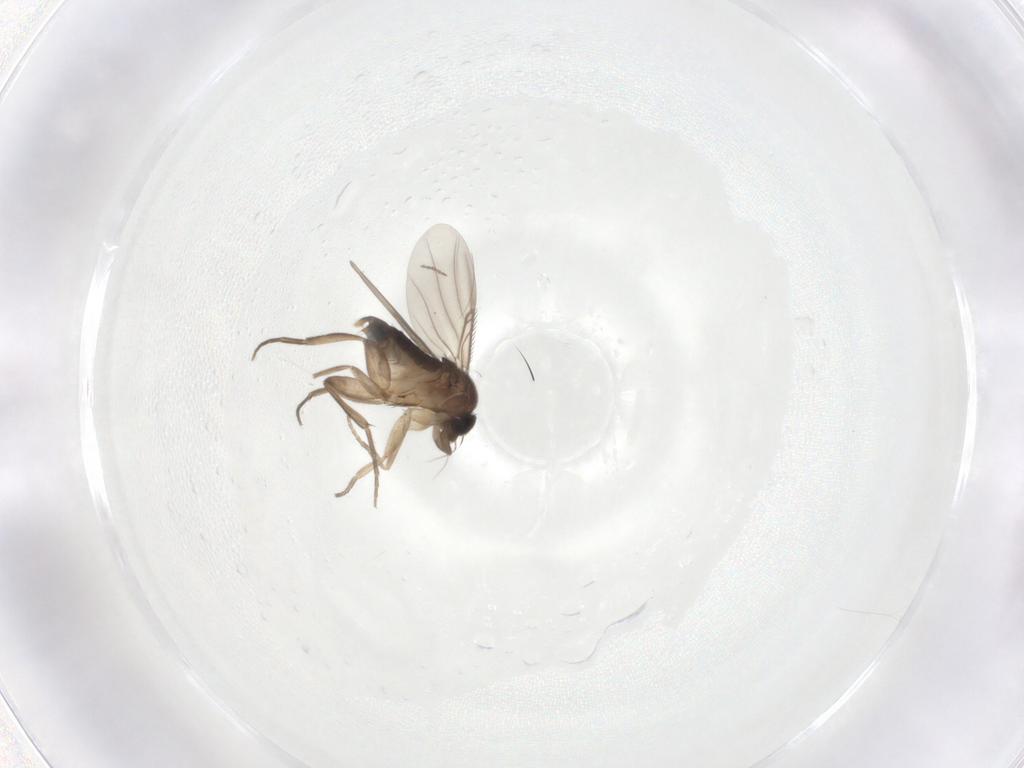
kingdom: Animalia
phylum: Arthropoda
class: Insecta
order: Diptera
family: Phoridae
